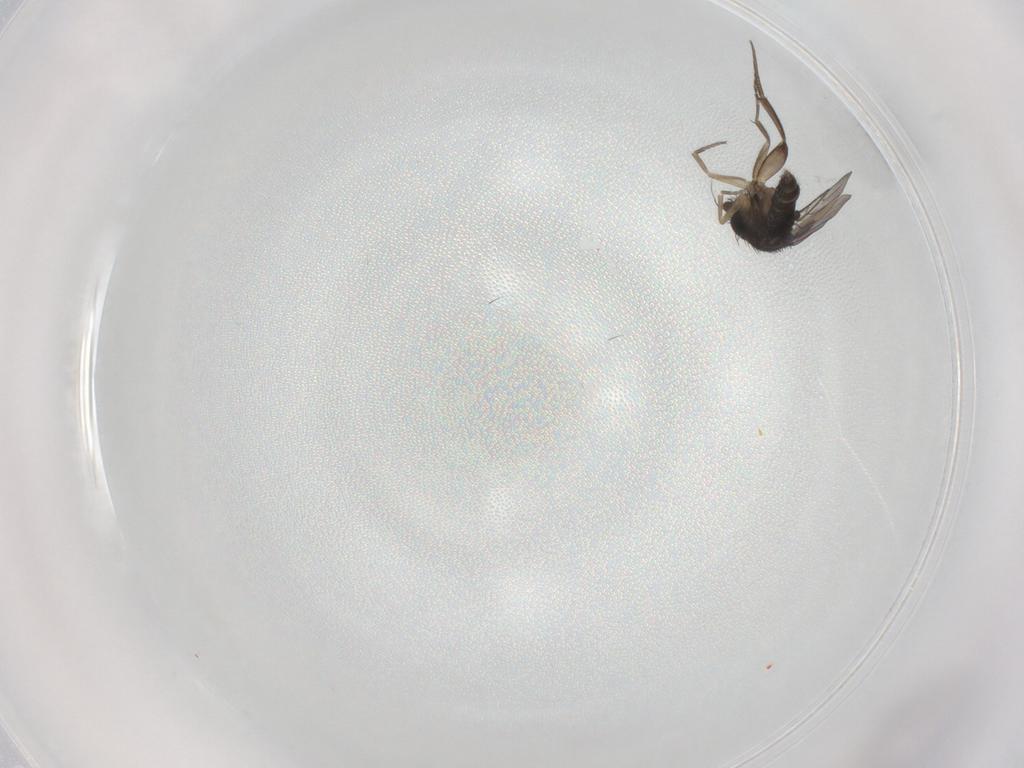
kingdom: Animalia
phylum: Arthropoda
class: Insecta
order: Diptera
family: Sciaridae
